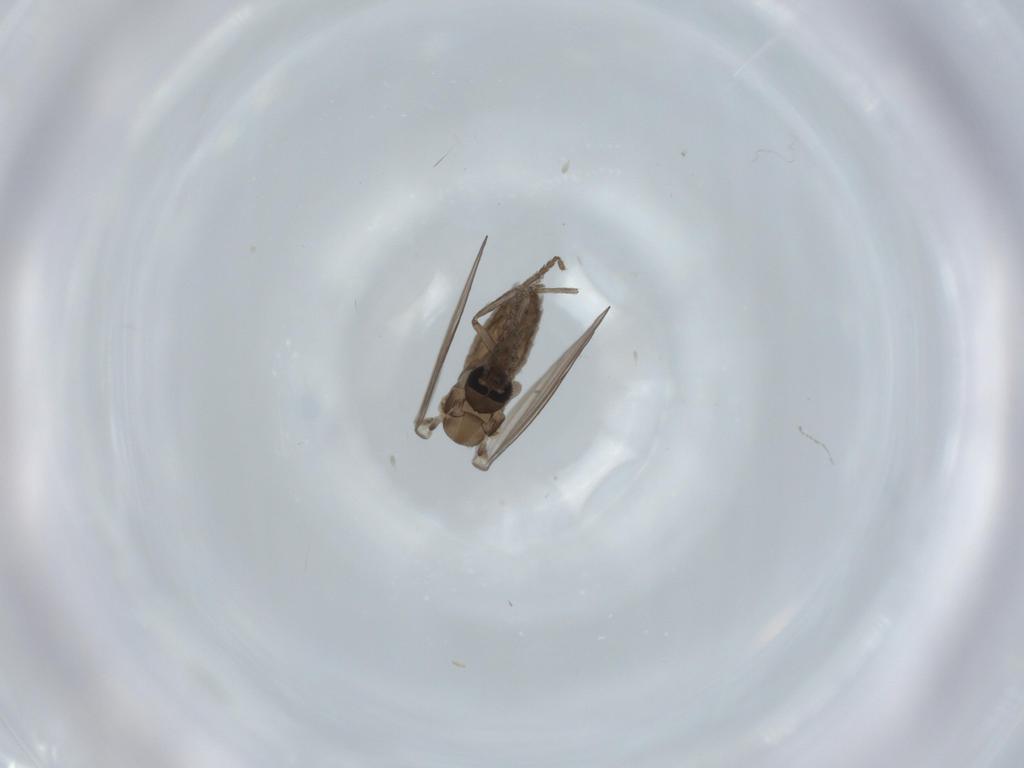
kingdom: Animalia
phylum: Arthropoda
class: Insecta
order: Diptera
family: Psychodidae
